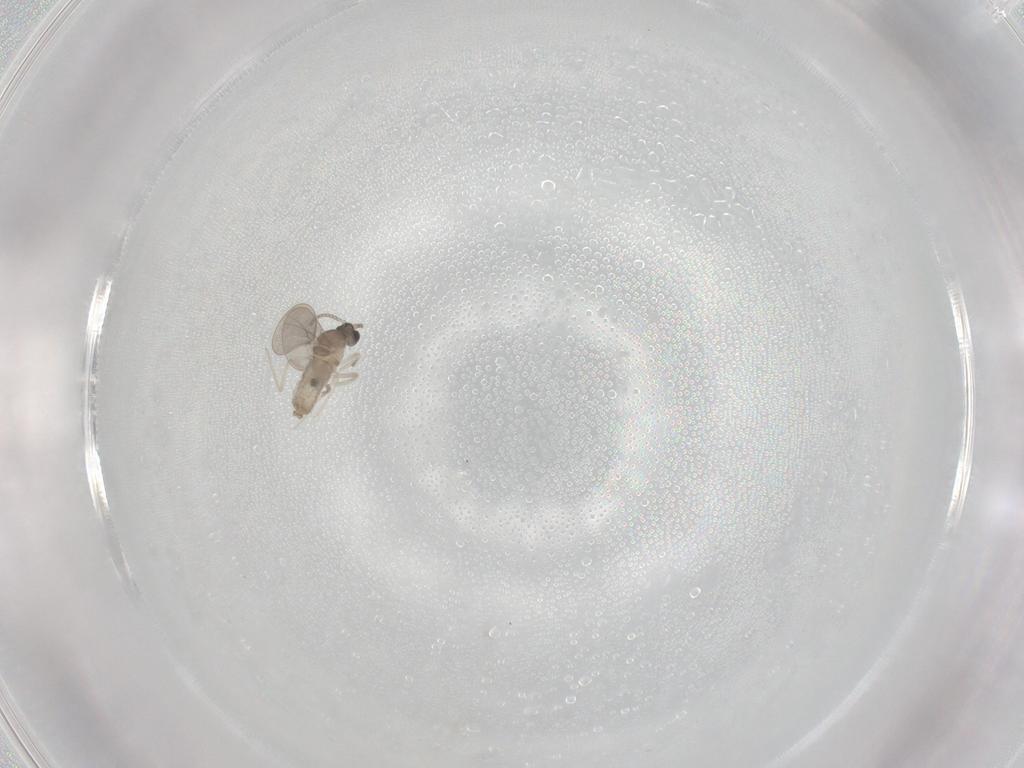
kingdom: Animalia
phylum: Arthropoda
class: Insecta
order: Diptera
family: Cecidomyiidae
